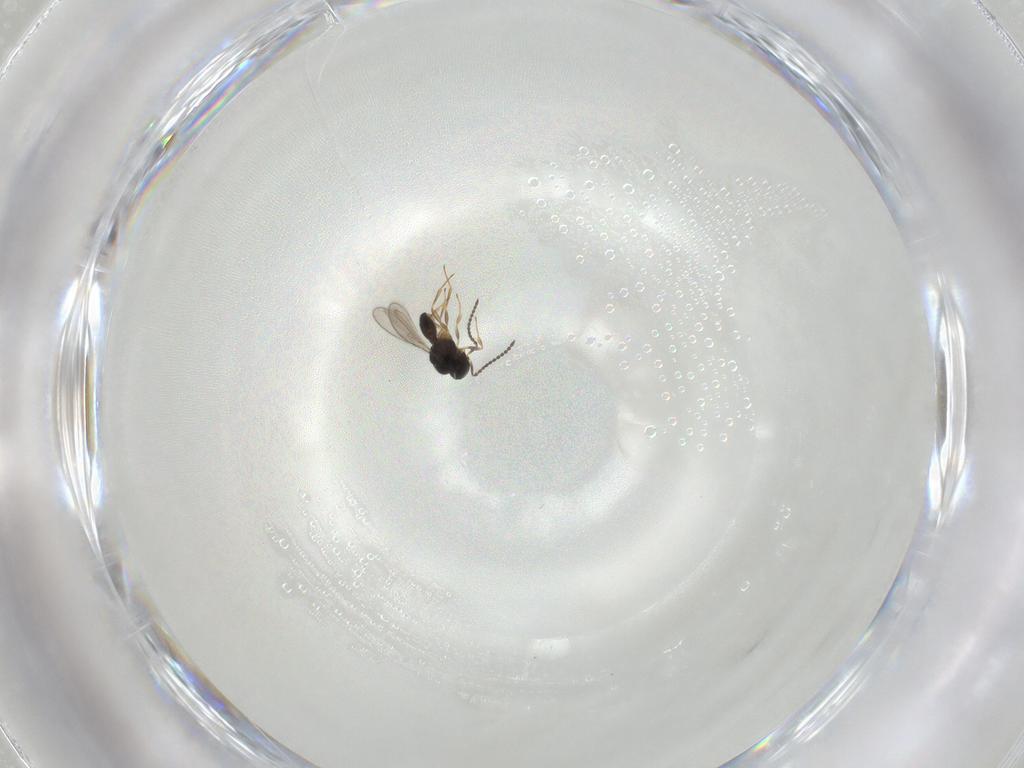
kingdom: Animalia
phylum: Arthropoda
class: Insecta
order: Hymenoptera
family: Scelionidae
